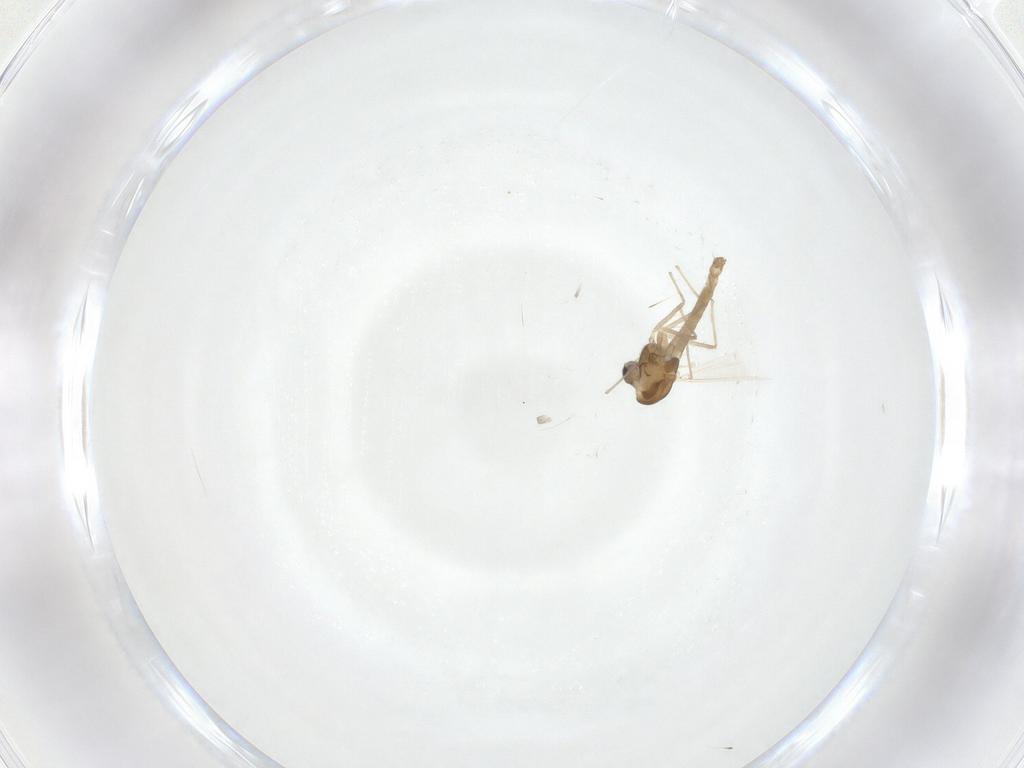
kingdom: Animalia
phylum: Arthropoda
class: Insecta
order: Diptera
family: Chironomidae
